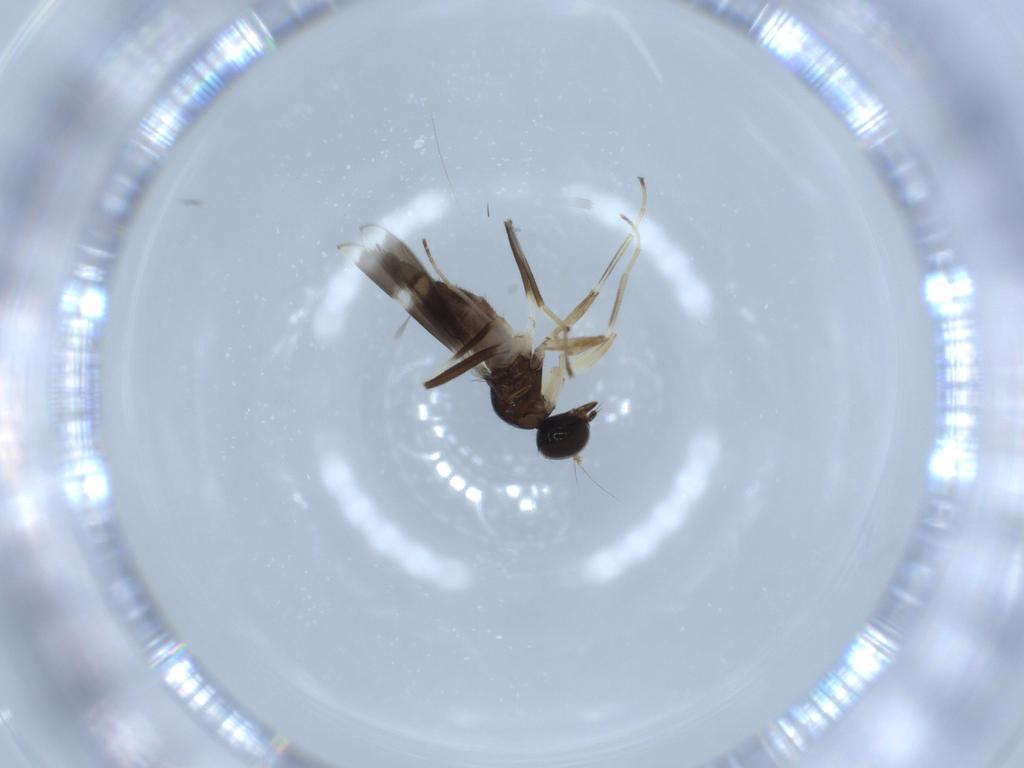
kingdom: Animalia
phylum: Arthropoda
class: Insecta
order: Diptera
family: Hybotidae
